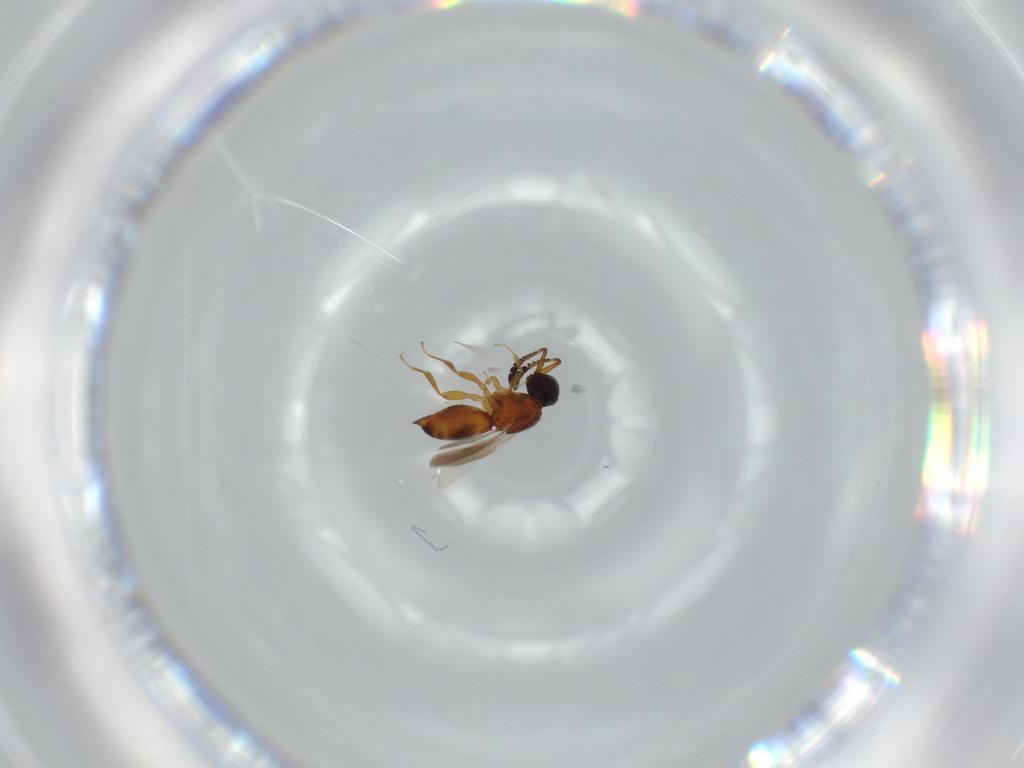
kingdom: Animalia
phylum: Arthropoda
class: Insecta
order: Hymenoptera
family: Ceraphronidae
